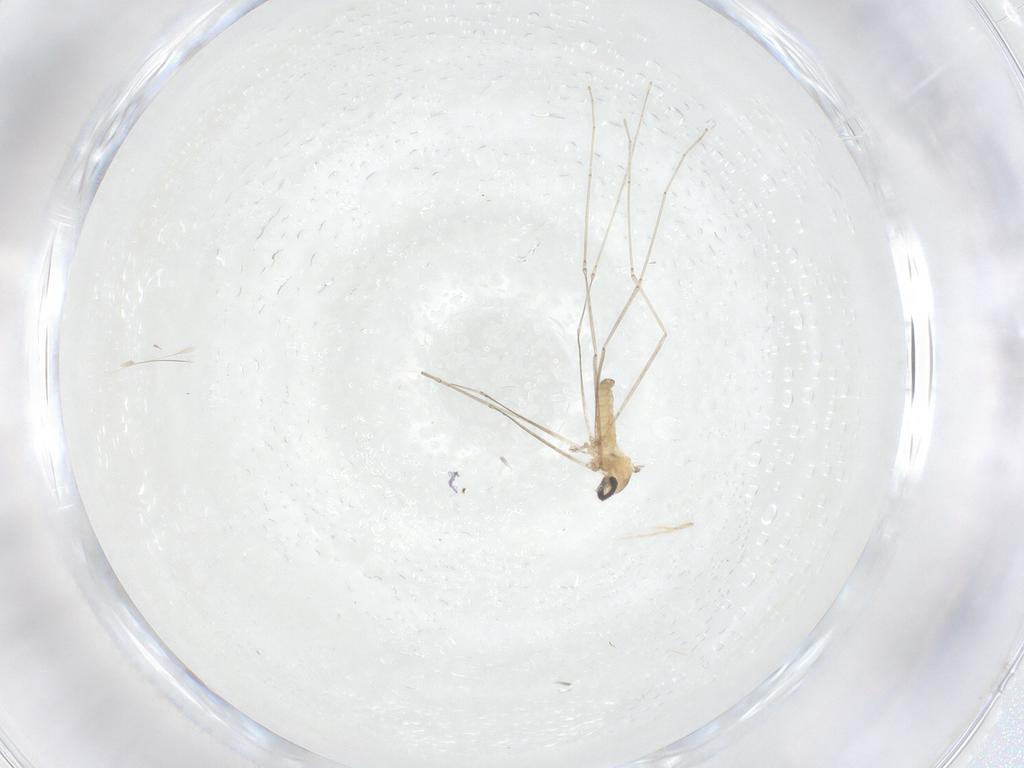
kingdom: Animalia
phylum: Arthropoda
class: Insecta
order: Diptera
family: Cecidomyiidae
